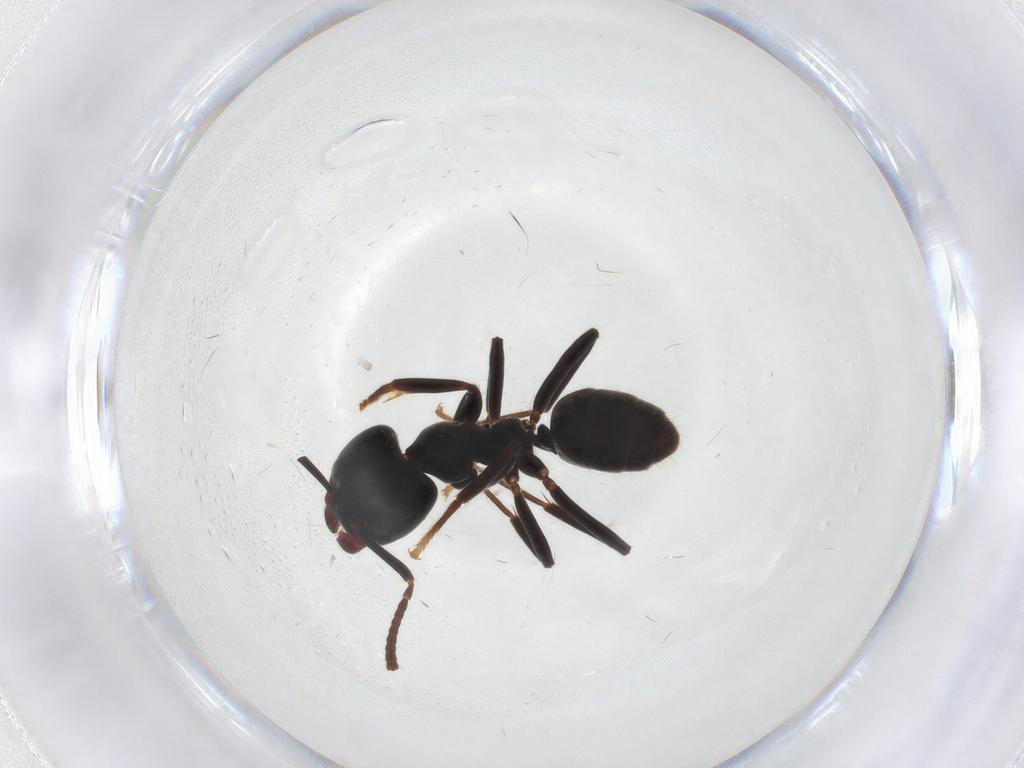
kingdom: Animalia
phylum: Arthropoda
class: Insecta
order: Hymenoptera
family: Formicidae
